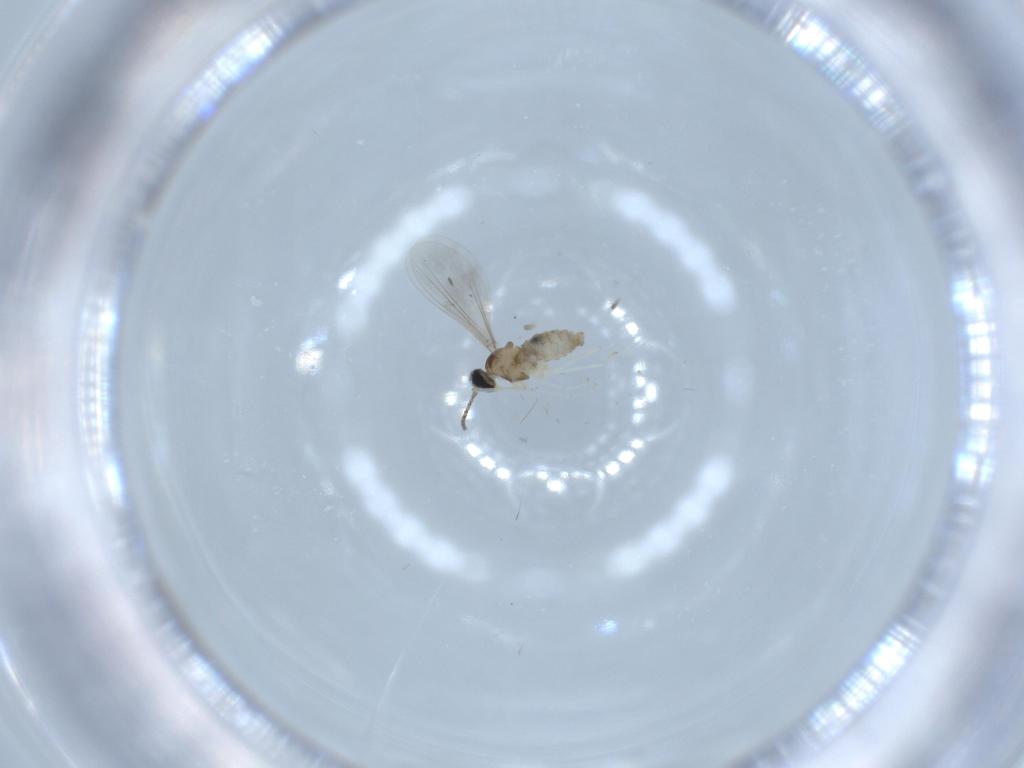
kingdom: Animalia
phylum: Arthropoda
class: Insecta
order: Diptera
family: Cecidomyiidae
